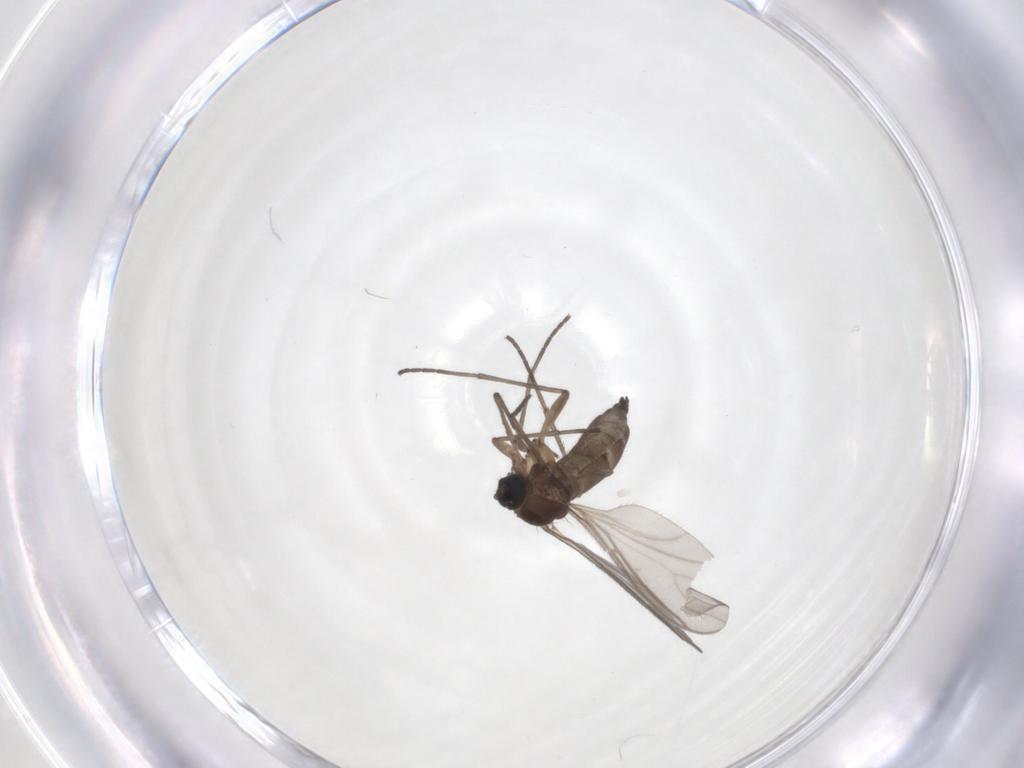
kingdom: Animalia
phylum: Arthropoda
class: Insecta
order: Diptera
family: Sciaridae
